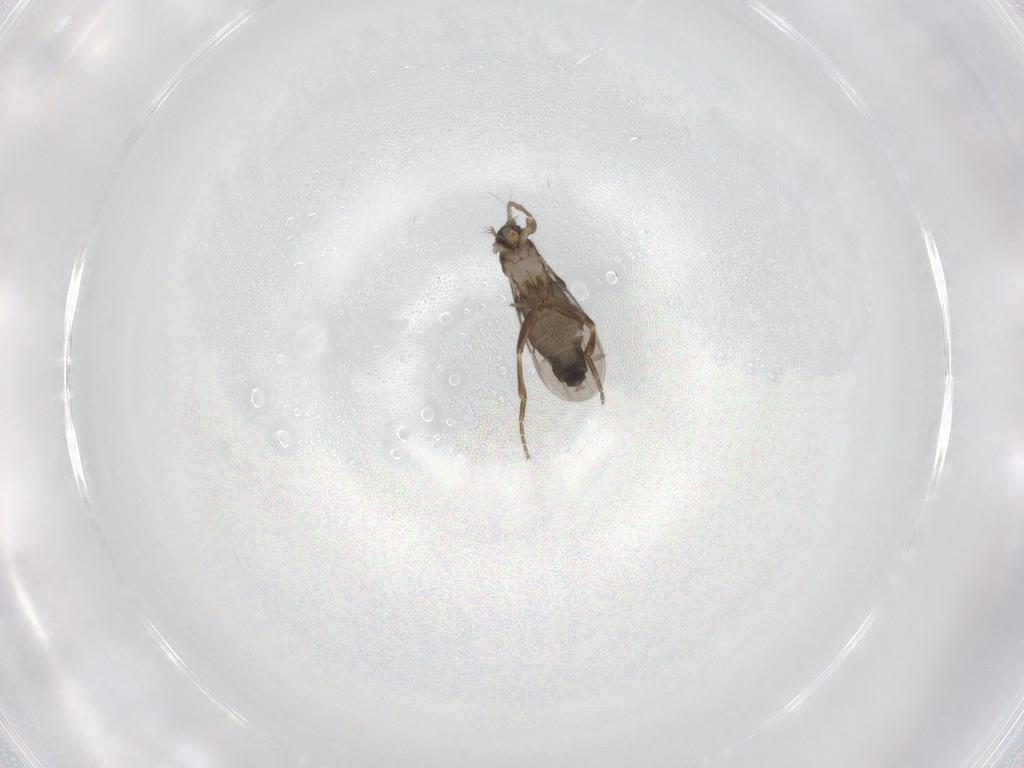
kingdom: Animalia
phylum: Arthropoda
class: Insecta
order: Diptera
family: Phoridae
